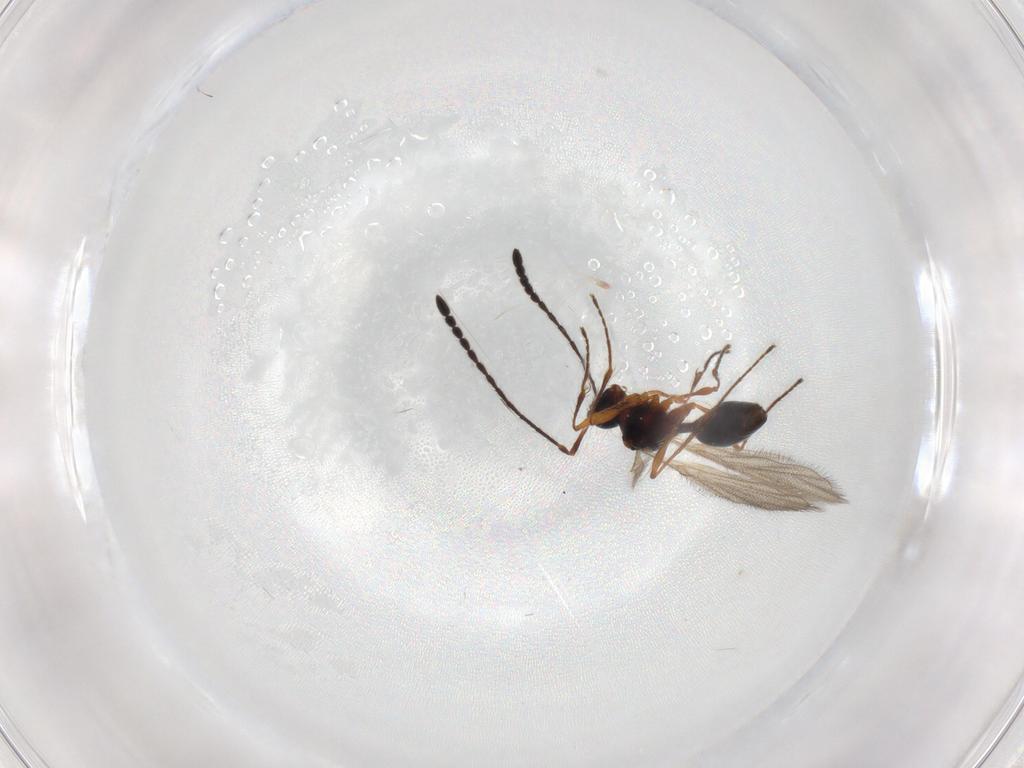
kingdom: Animalia
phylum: Arthropoda
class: Insecta
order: Hymenoptera
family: Diapriidae
